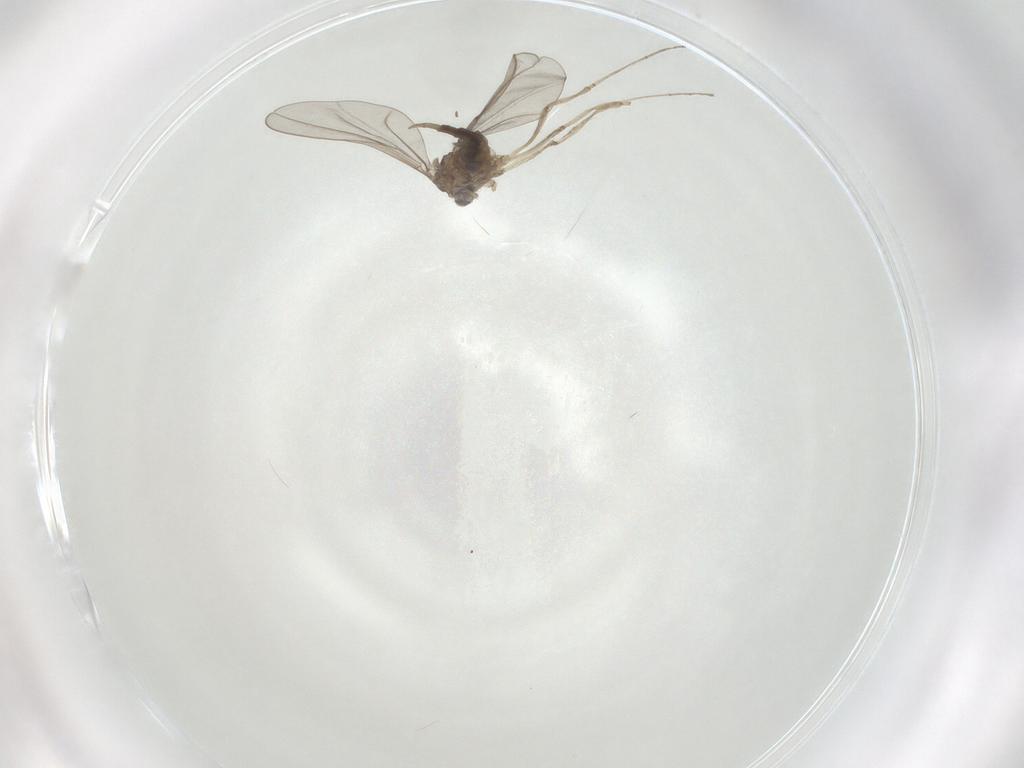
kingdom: Animalia
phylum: Arthropoda
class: Insecta
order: Diptera
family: Cecidomyiidae
